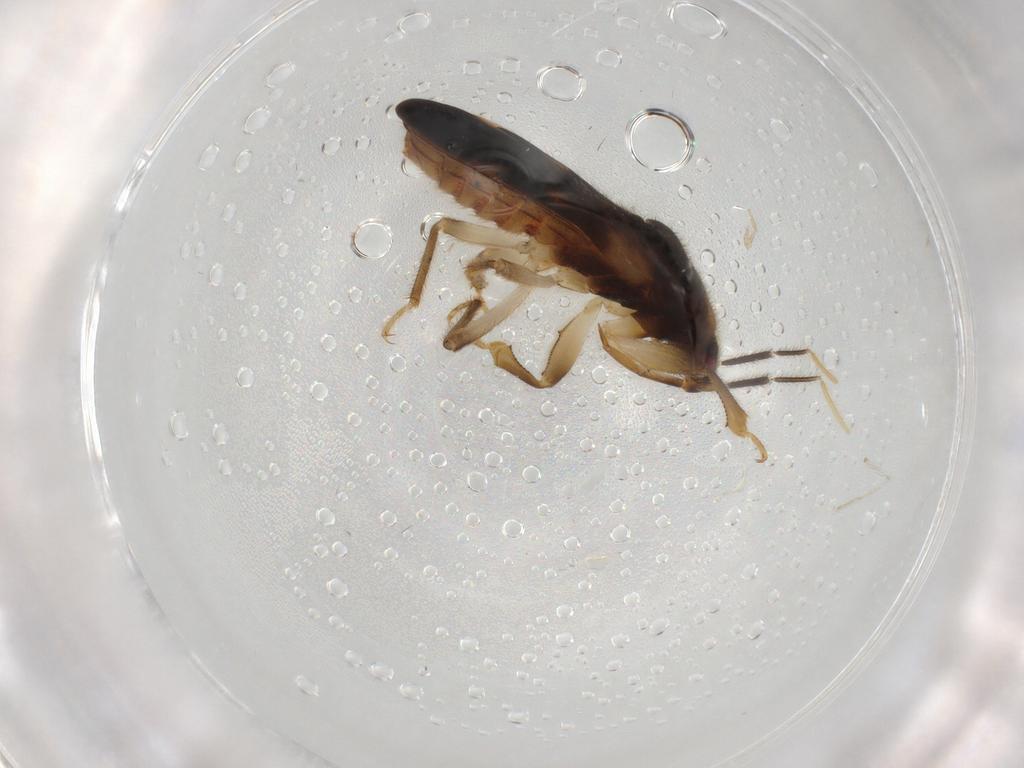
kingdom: Animalia
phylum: Arthropoda
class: Insecta
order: Hemiptera
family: Nabidae
